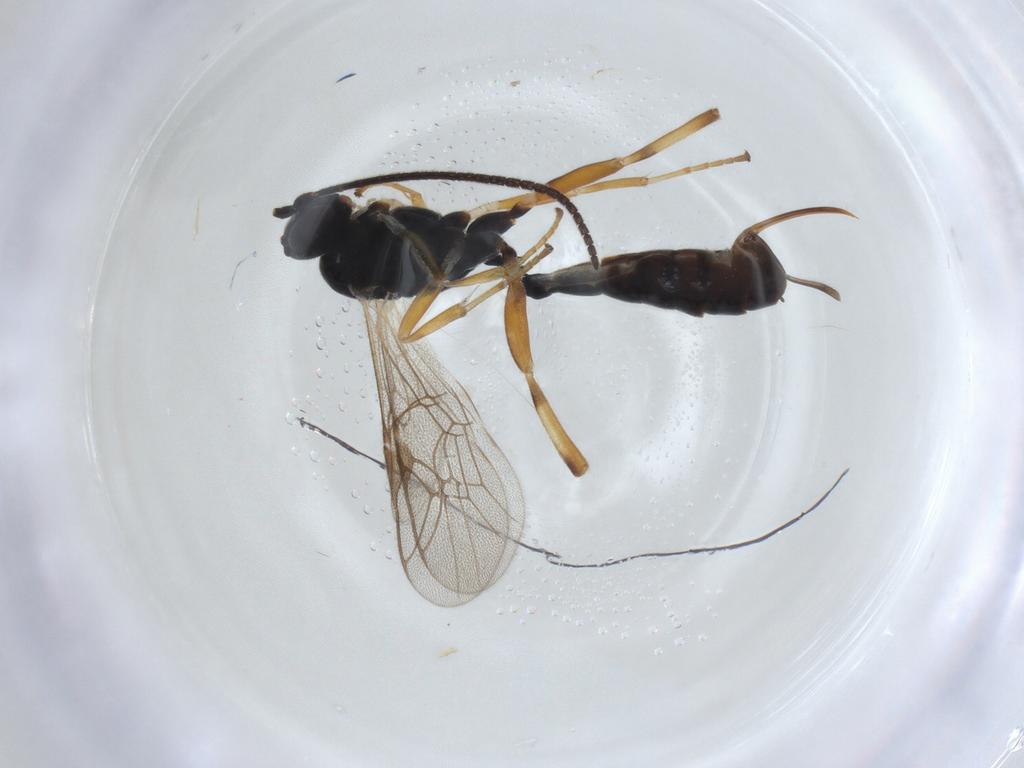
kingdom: Animalia
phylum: Arthropoda
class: Insecta
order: Hymenoptera
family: Ichneumonidae
